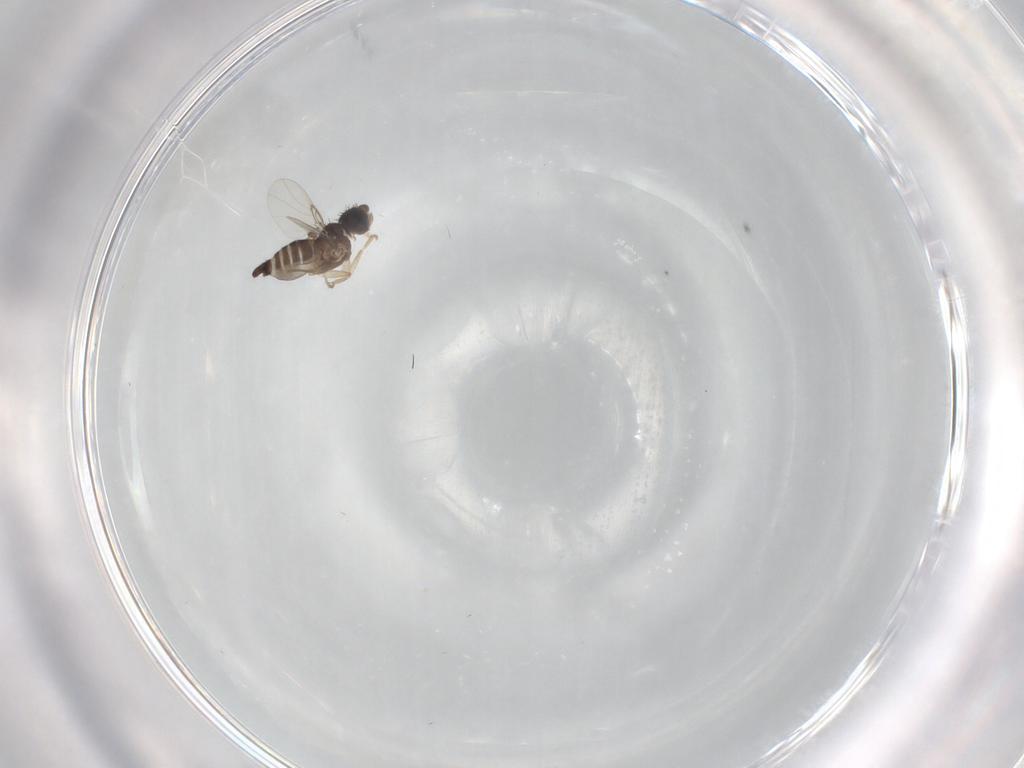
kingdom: Animalia
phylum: Arthropoda
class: Insecta
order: Diptera
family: Phoridae
